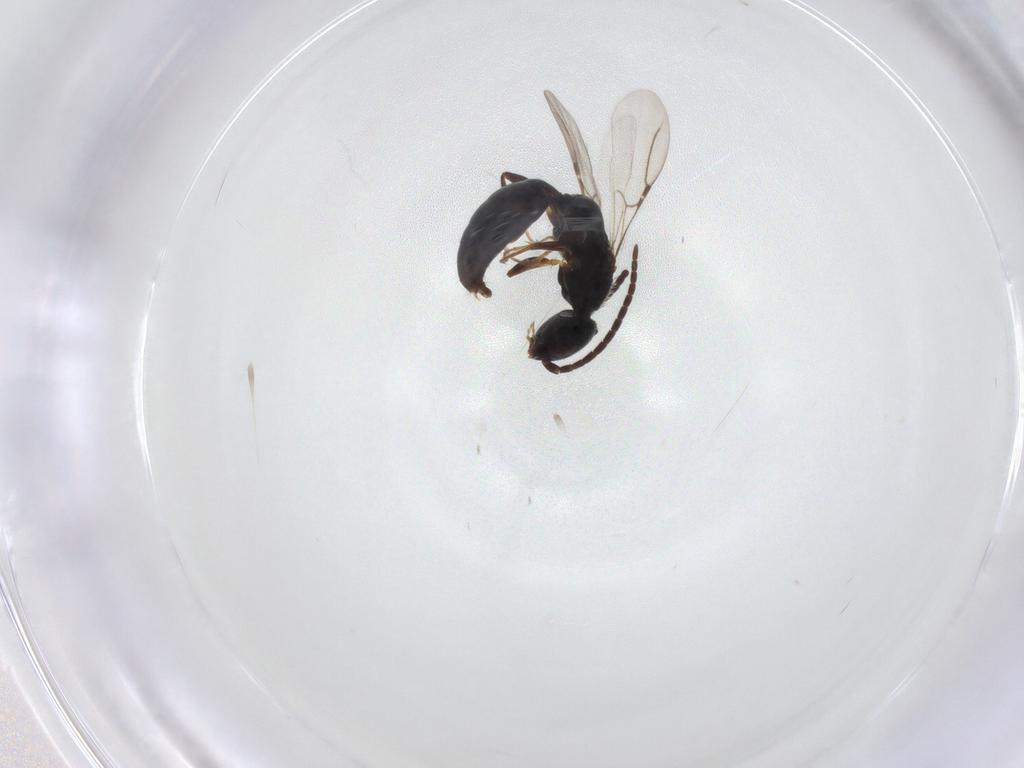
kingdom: Animalia
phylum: Arthropoda
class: Insecta
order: Hymenoptera
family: Bethylidae
